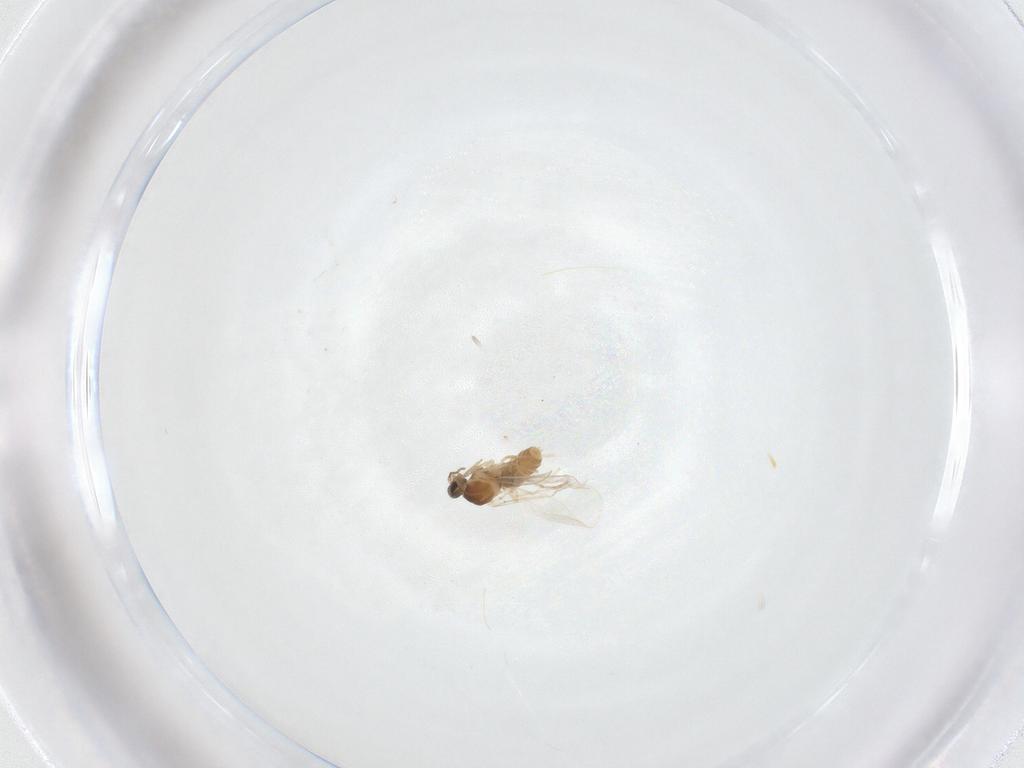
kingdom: Animalia
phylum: Arthropoda
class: Insecta
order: Diptera
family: Cecidomyiidae
